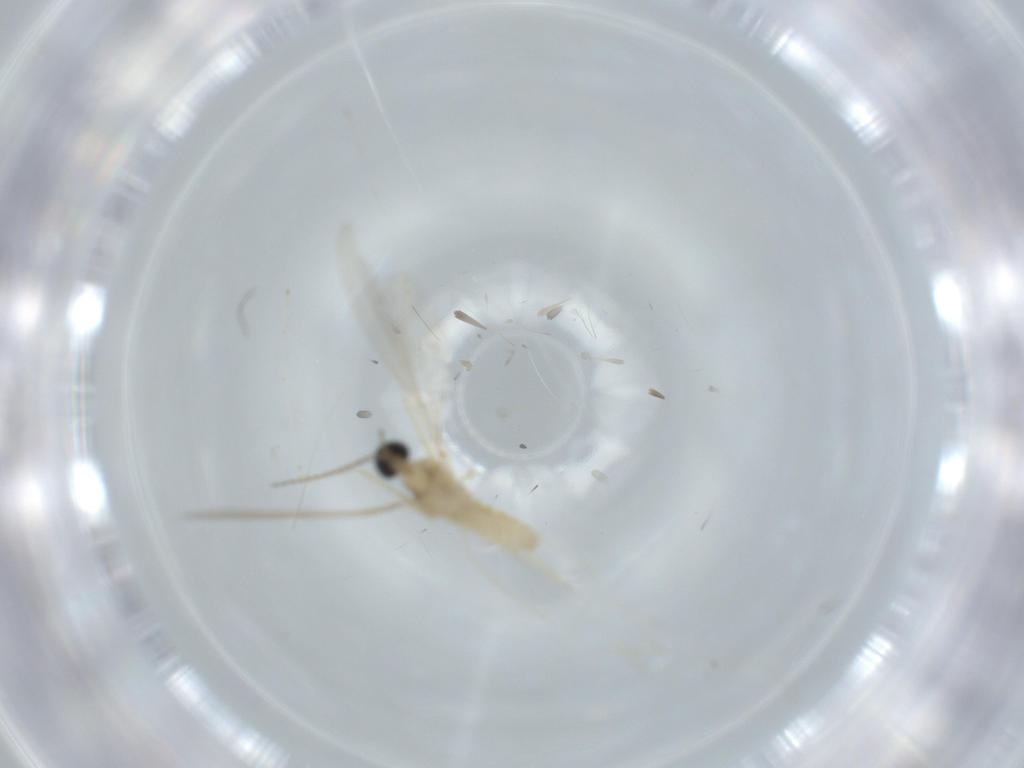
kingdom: Animalia
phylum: Arthropoda
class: Insecta
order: Diptera
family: Cecidomyiidae
